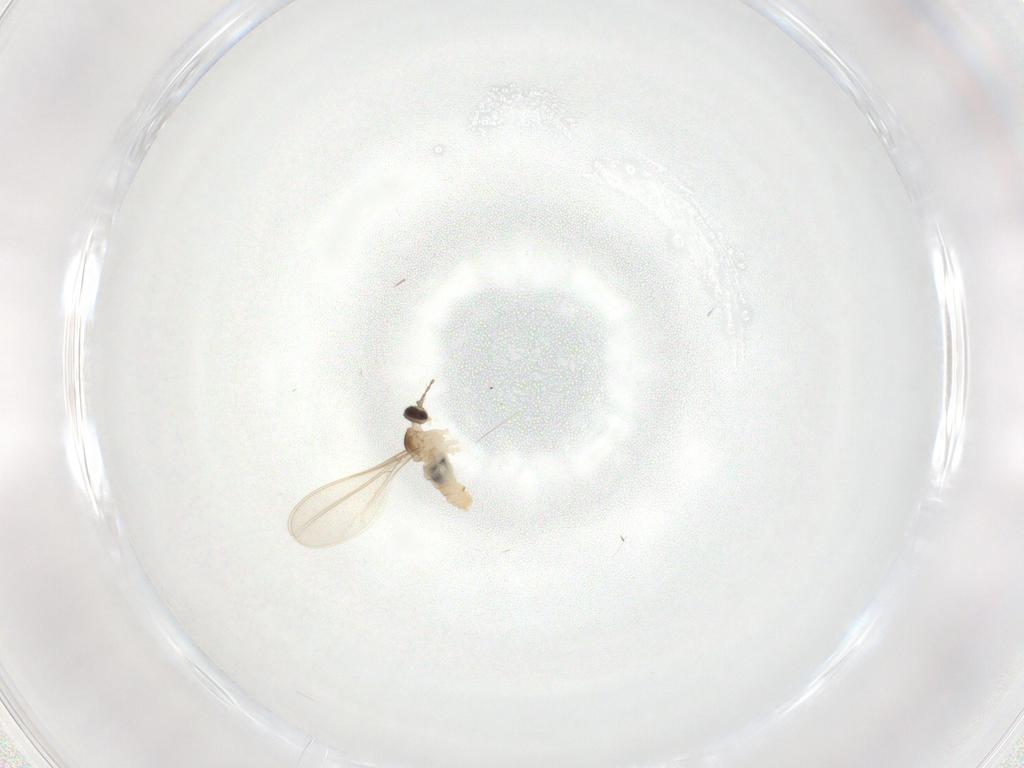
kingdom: Animalia
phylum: Arthropoda
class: Insecta
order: Diptera
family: Cecidomyiidae
